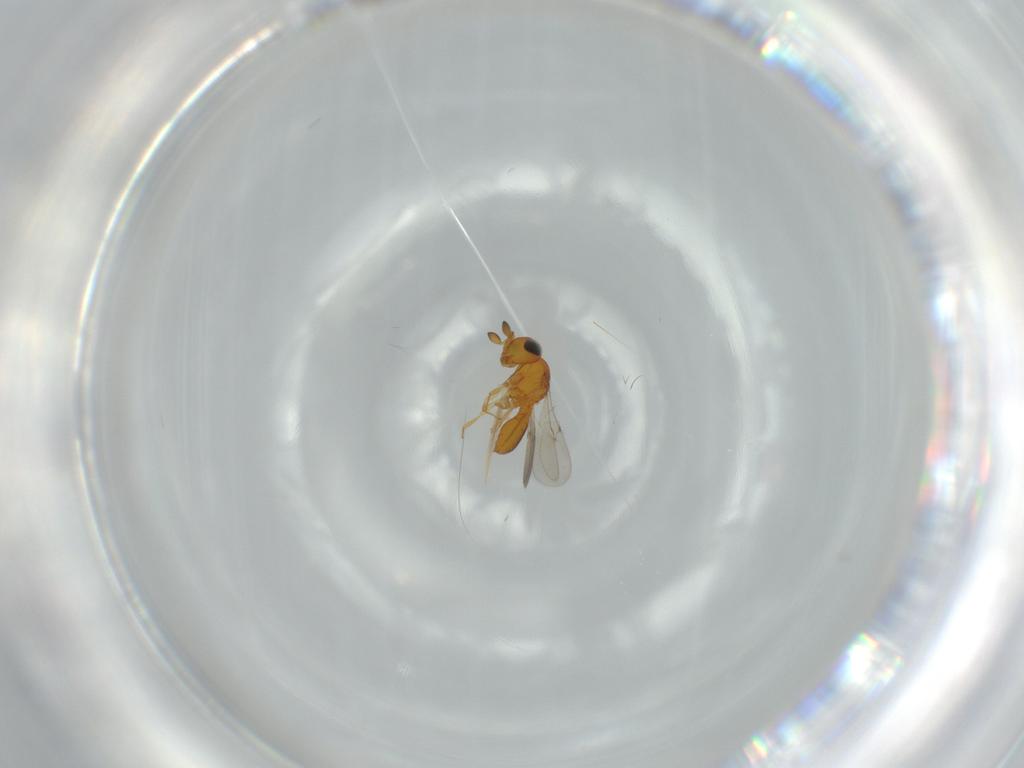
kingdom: Animalia
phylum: Arthropoda
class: Insecta
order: Hymenoptera
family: Scelionidae
